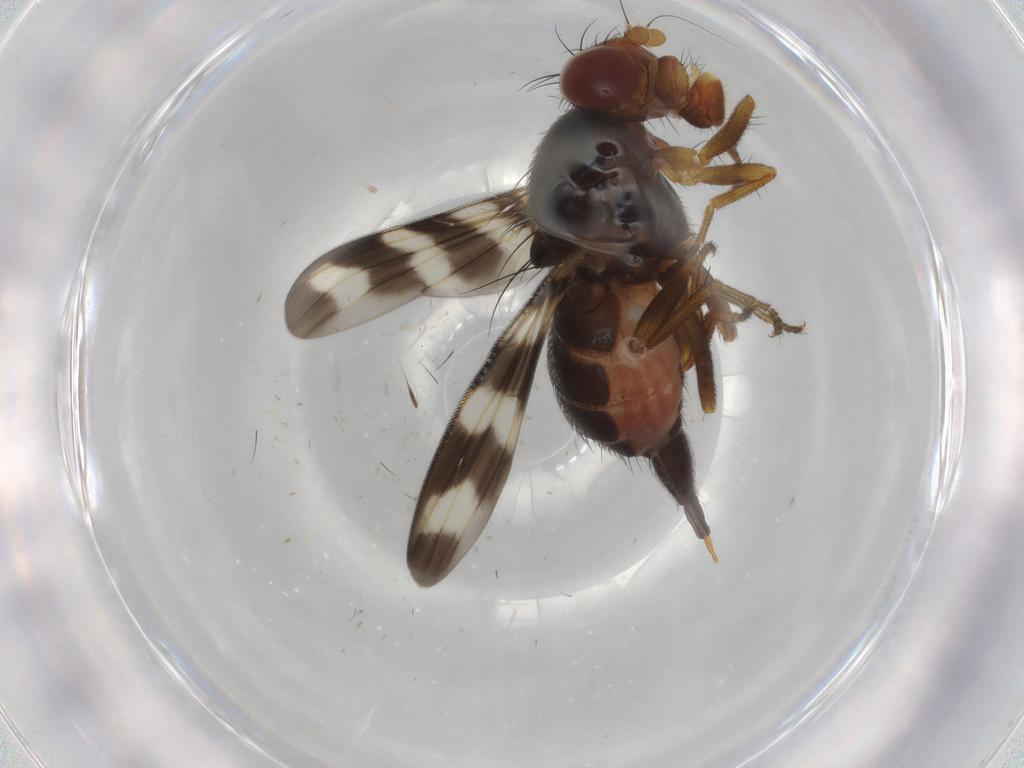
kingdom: Animalia
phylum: Arthropoda
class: Insecta
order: Diptera
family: Ulidiidae
